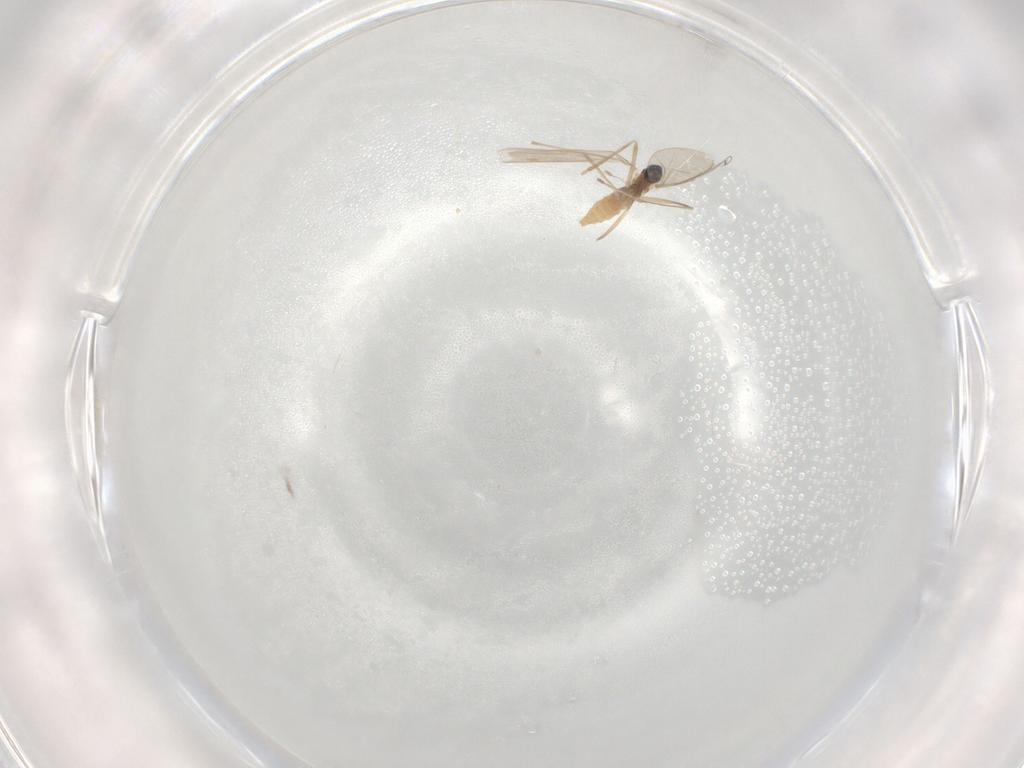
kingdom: Animalia
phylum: Arthropoda
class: Insecta
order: Diptera
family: Cecidomyiidae
